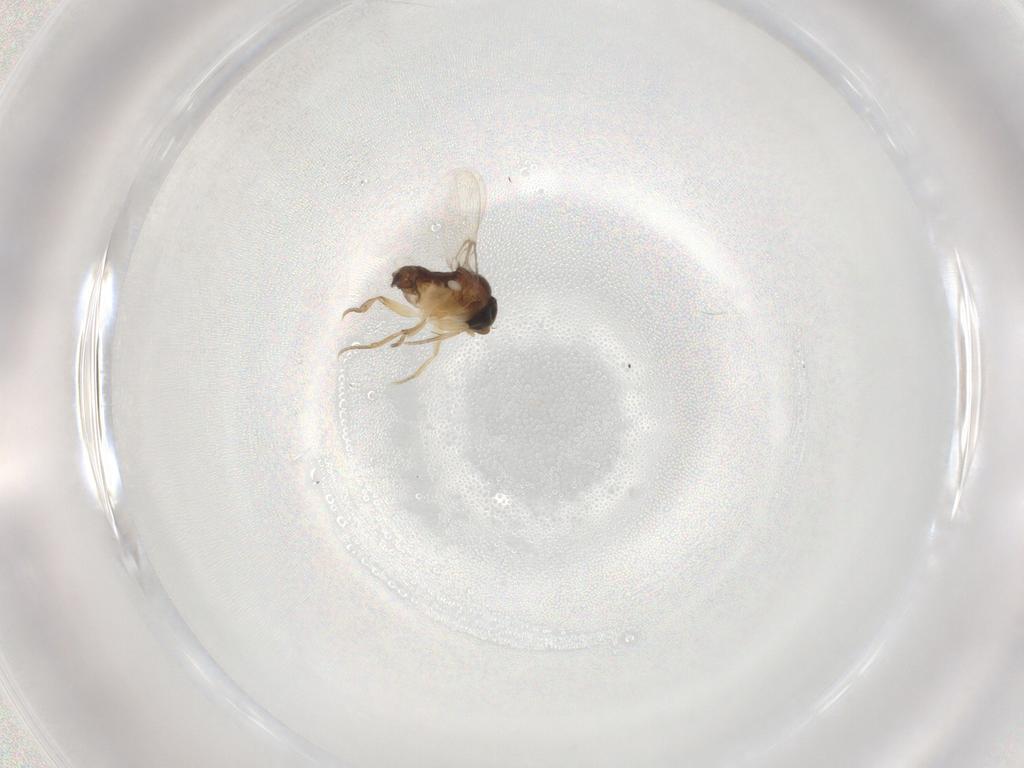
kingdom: Animalia
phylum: Arthropoda
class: Insecta
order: Diptera
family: Phoridae
